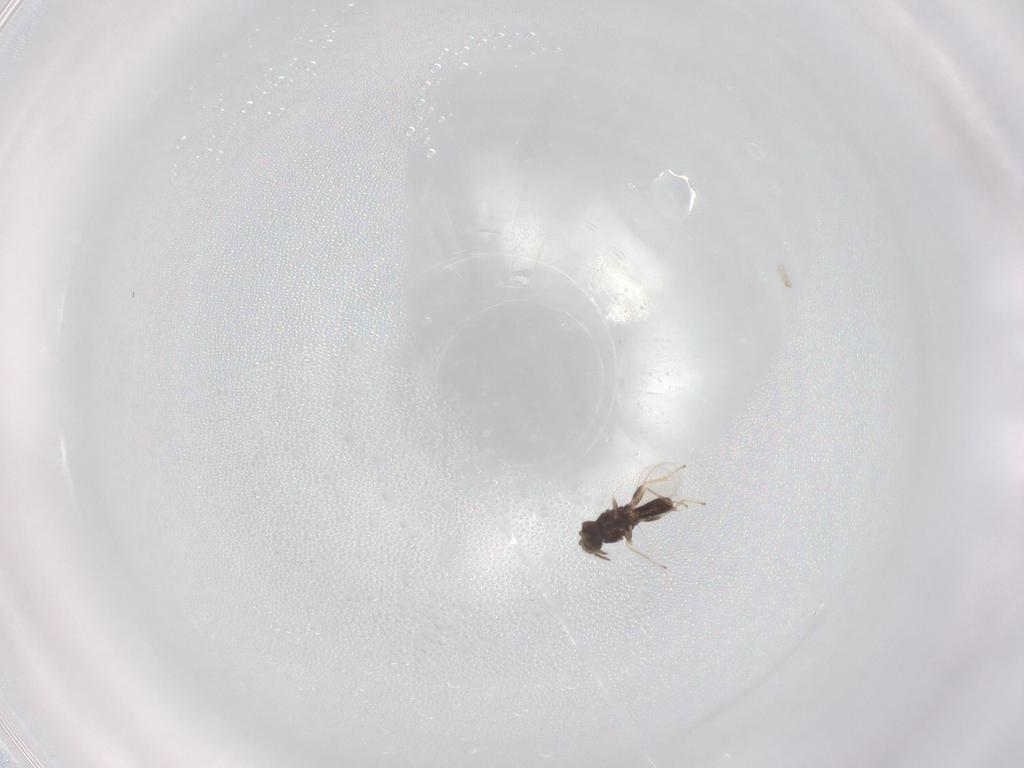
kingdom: Animalia
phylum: Arthropoda
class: Insecta
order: Hymenoptera
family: Eulophidae
